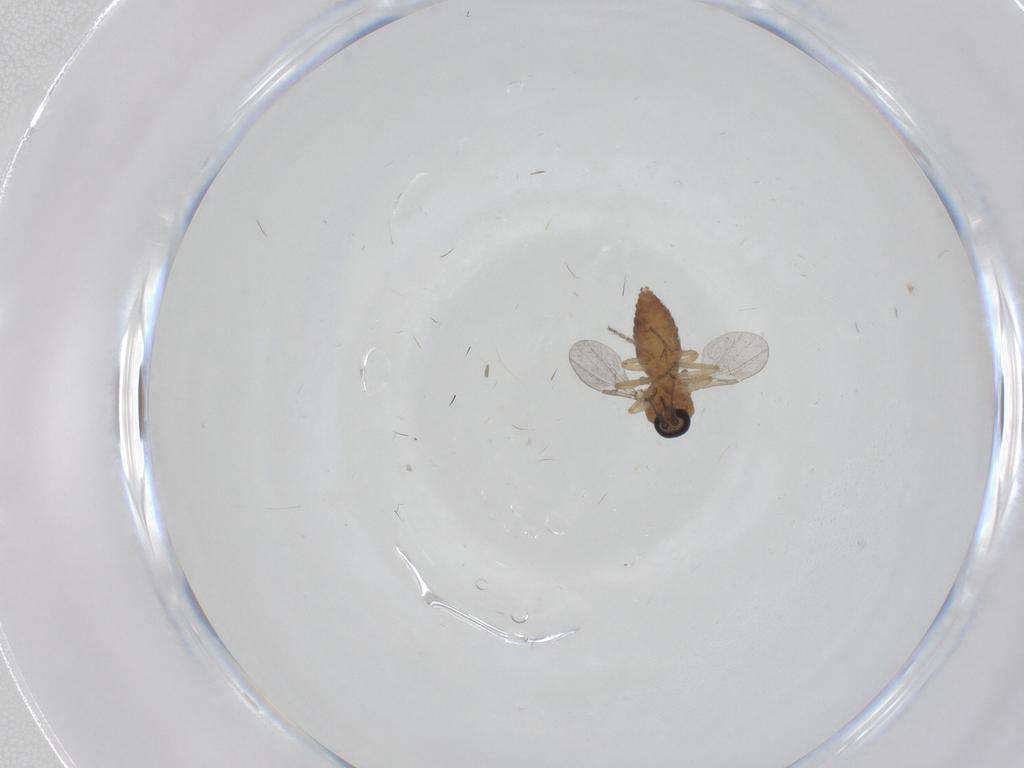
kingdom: Animalia
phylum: Arthropoda
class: Insecta
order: Diptera
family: Ceratopogonidae
